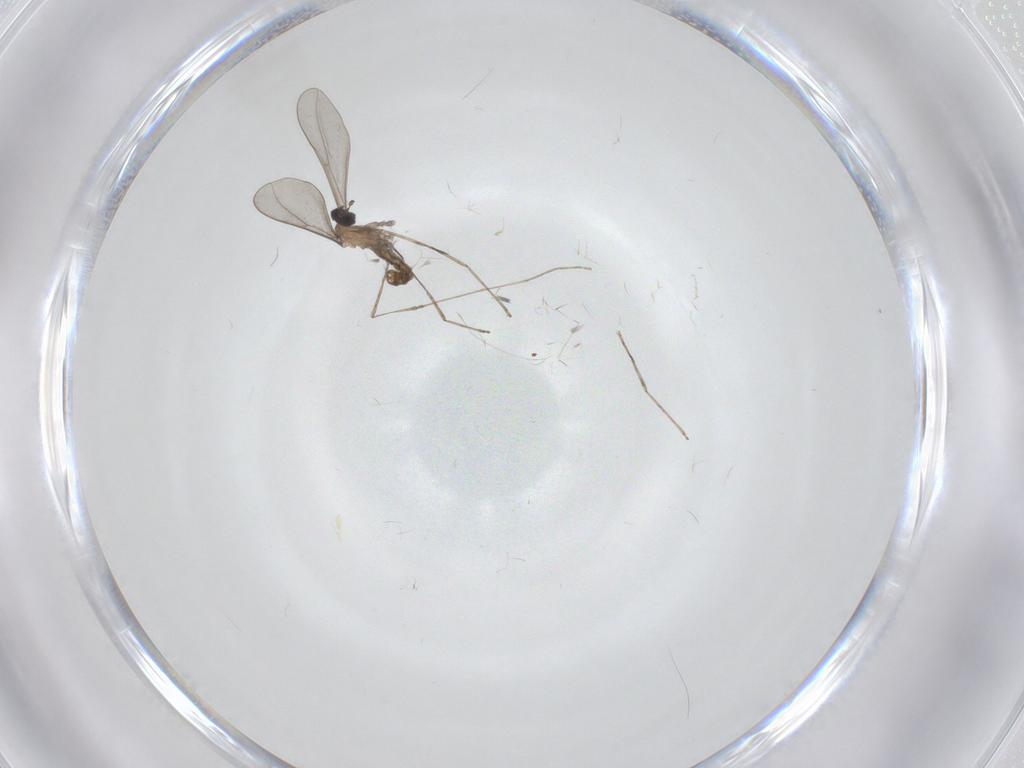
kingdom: Animalia
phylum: Arthropoda
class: Insecta
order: Diptera
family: Cecidomyiidae
